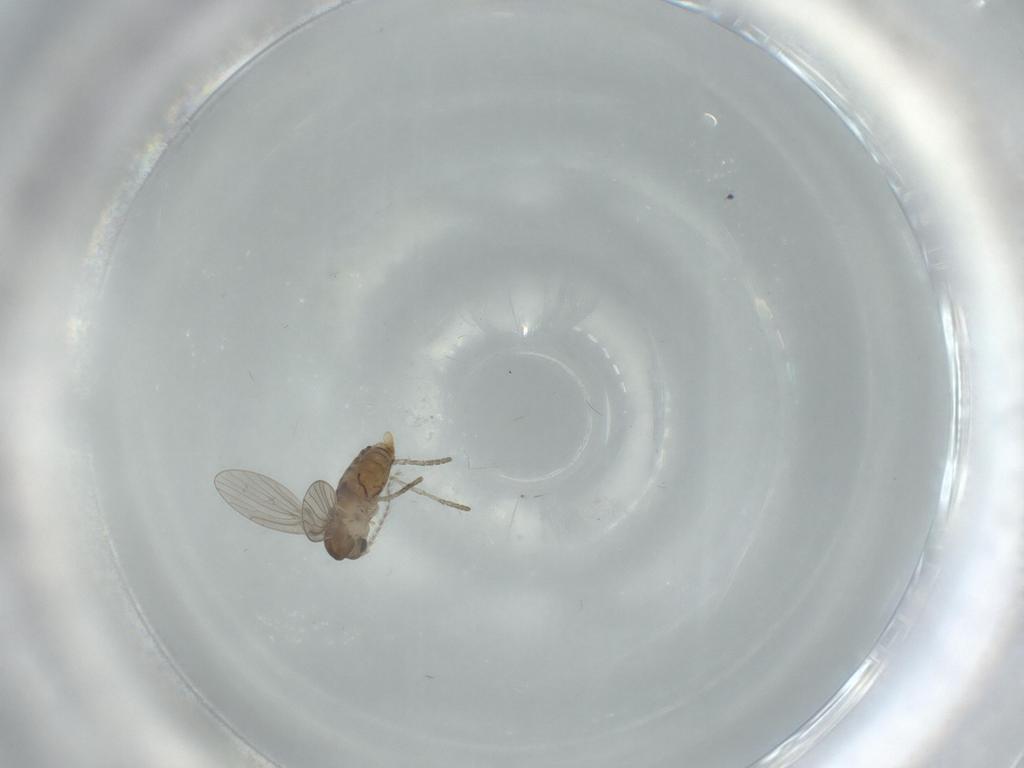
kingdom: Animalia
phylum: Arthropoda
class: Insecta
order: Diptera
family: Psychodidae
